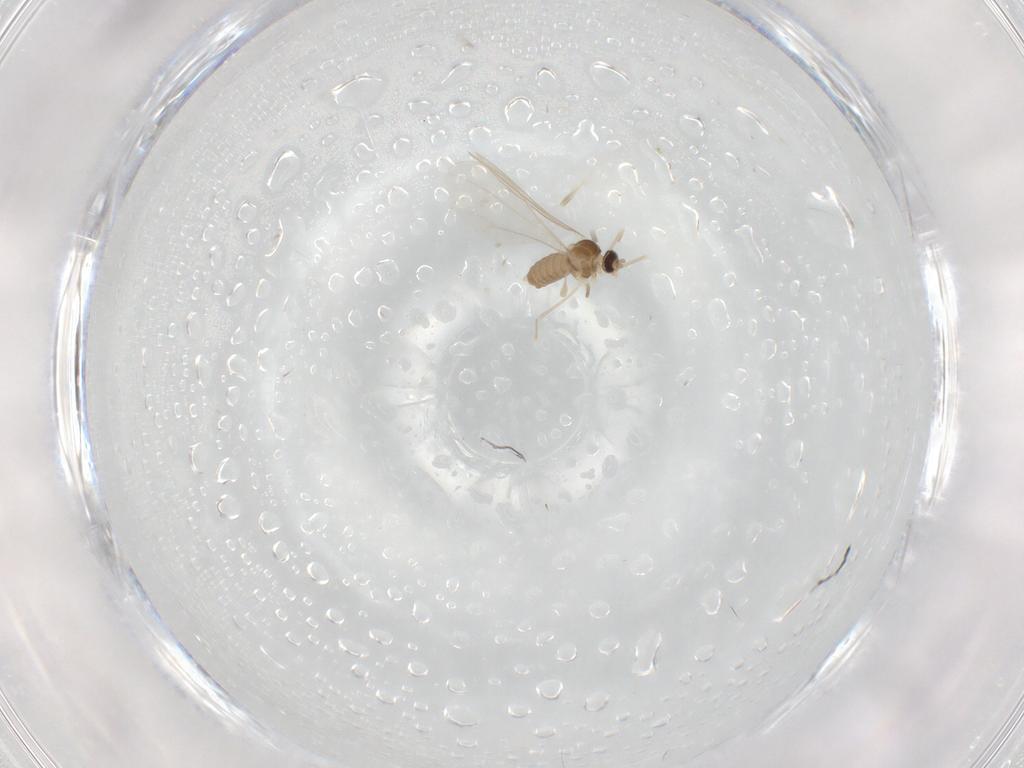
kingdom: Animalia
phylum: Arthropoda
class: Insecta
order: Diptera
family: Cecidomyiidae
